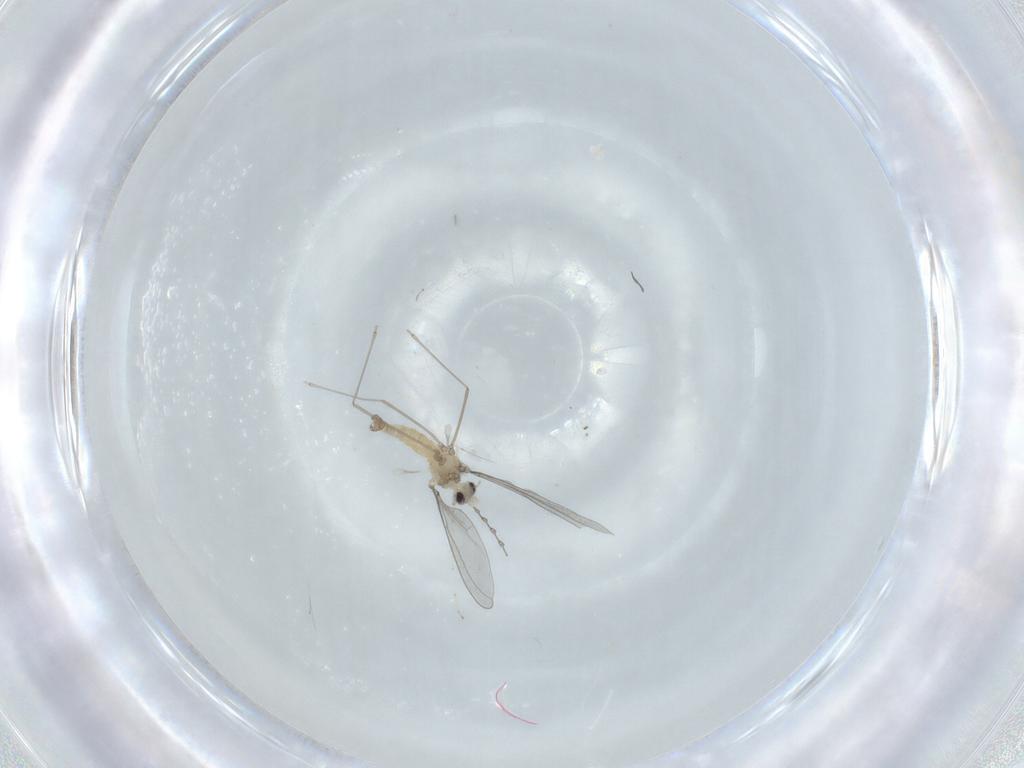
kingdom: Animalia
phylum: Arthropoda
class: Insecta
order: Diptera
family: Cecidomyiidae
